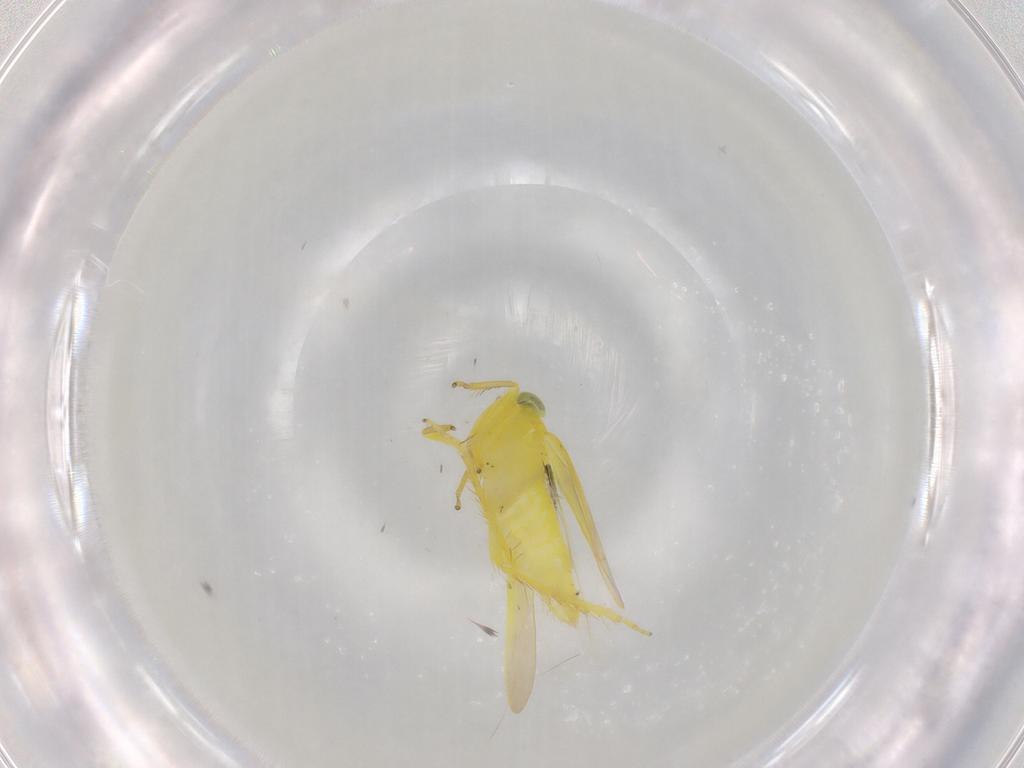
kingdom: Animalia
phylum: Arthropoda
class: Insecta
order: Hemiptera
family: Cicadellidae
